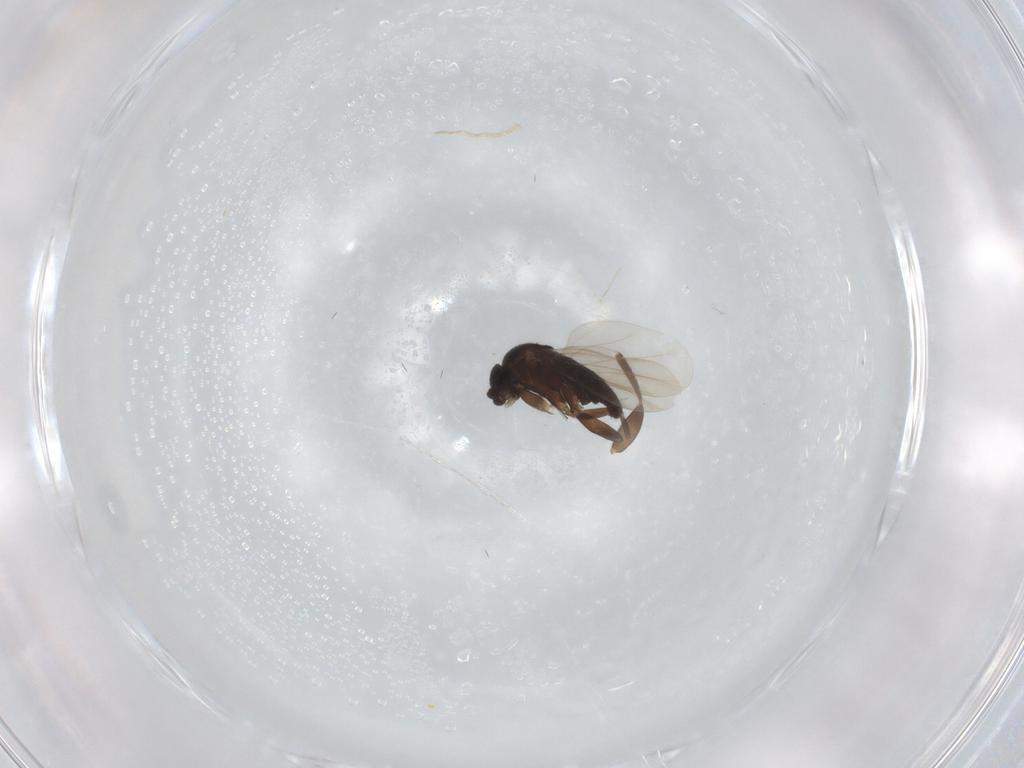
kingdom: Animalia
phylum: Arthropoda
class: Insecta
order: Diptera
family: Phoridae
